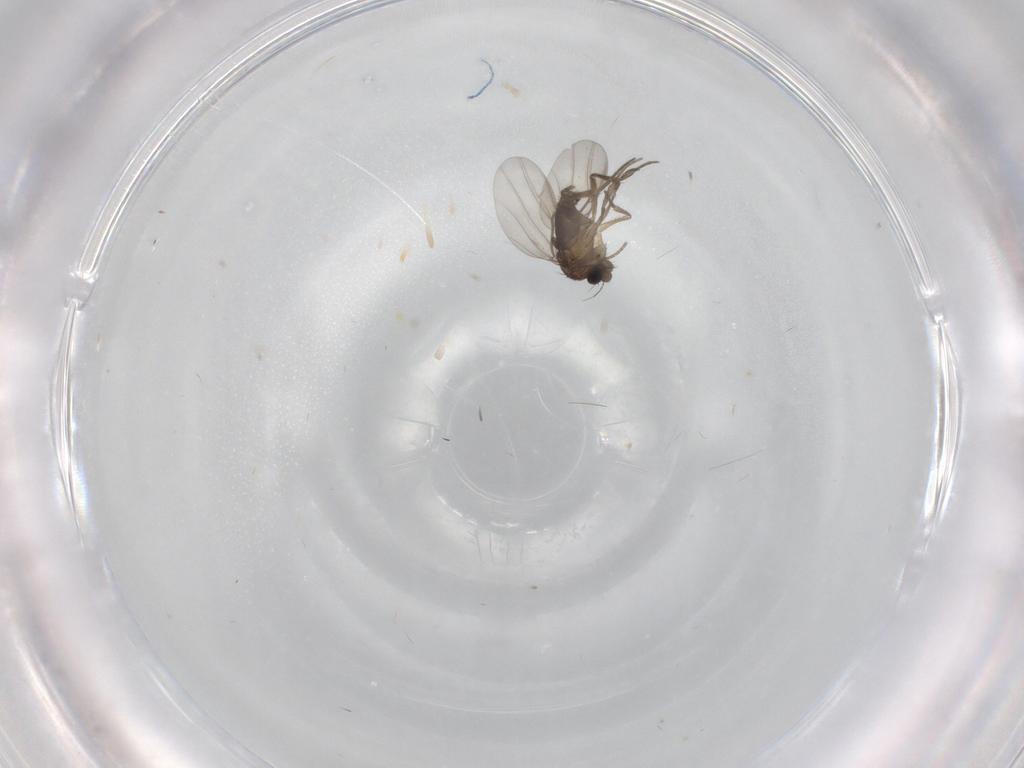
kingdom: Animalia
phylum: Arthropoda
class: Insecta
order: Diptera
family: Phoridae
